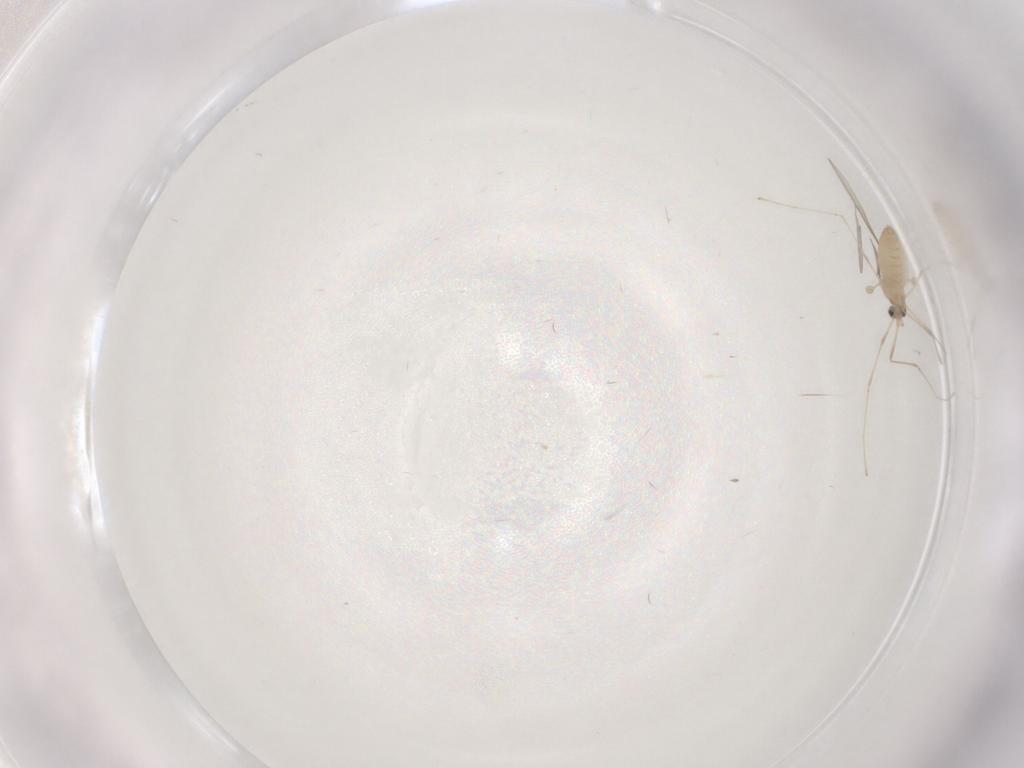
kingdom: Animalia
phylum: Arthropoda
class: Insecta
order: Diptera
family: Cecidomyiidae
